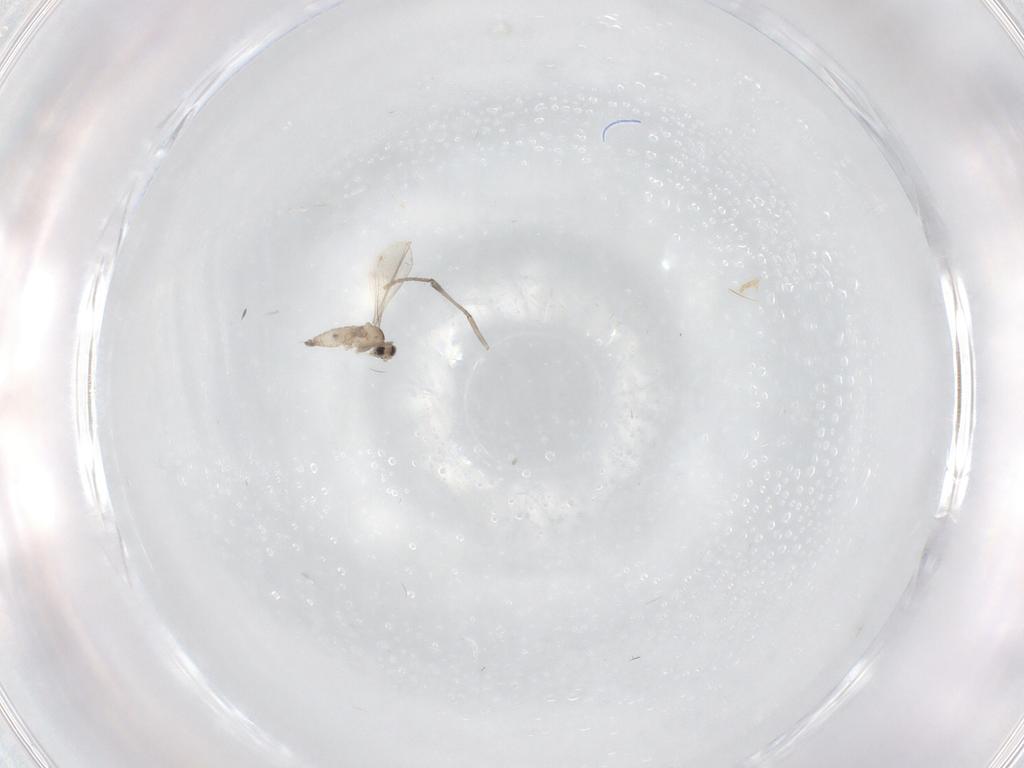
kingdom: Animalia
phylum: Arthropoda
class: Insecta
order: Diptera
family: Cecidomyiidae
